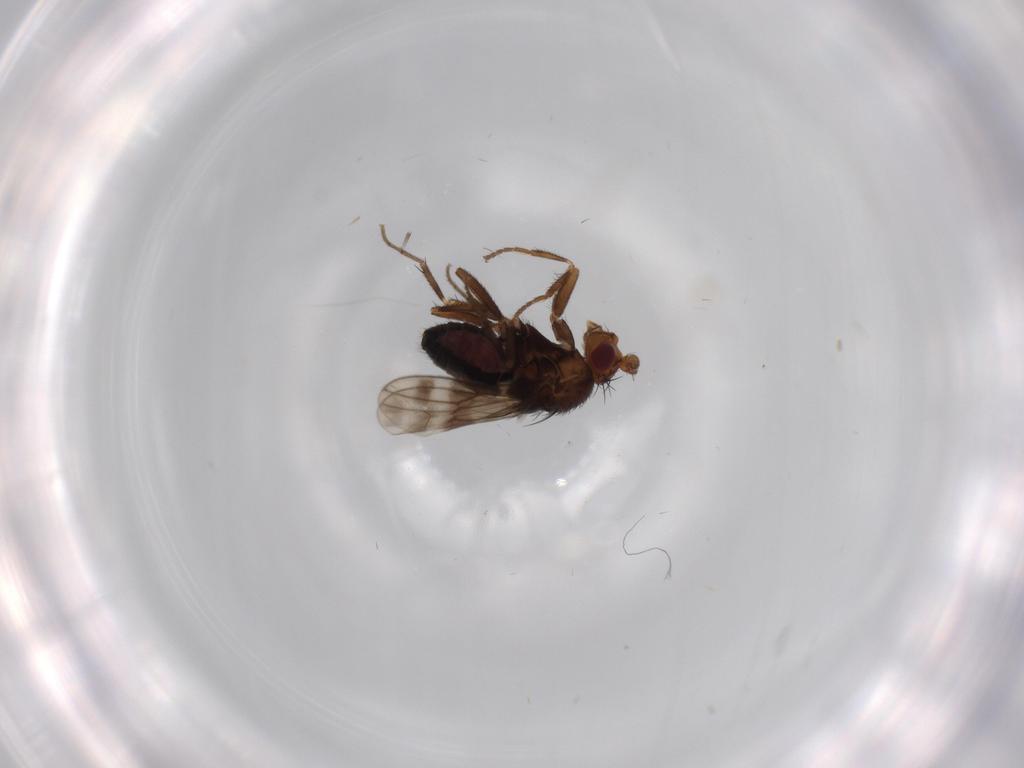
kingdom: Animalia
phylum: Arthropoda
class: Insecta
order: Diptera
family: Sphaeroceridae
